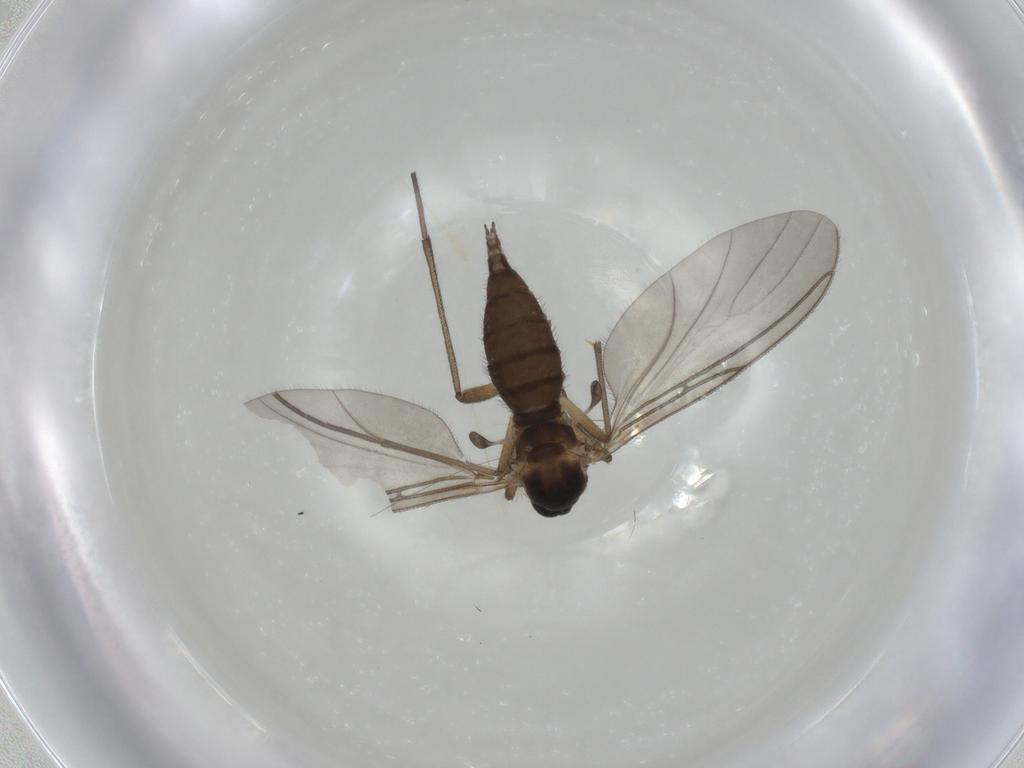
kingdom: Animalia
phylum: Arthropoda
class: Insecta
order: Diptera
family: Sciaridae
